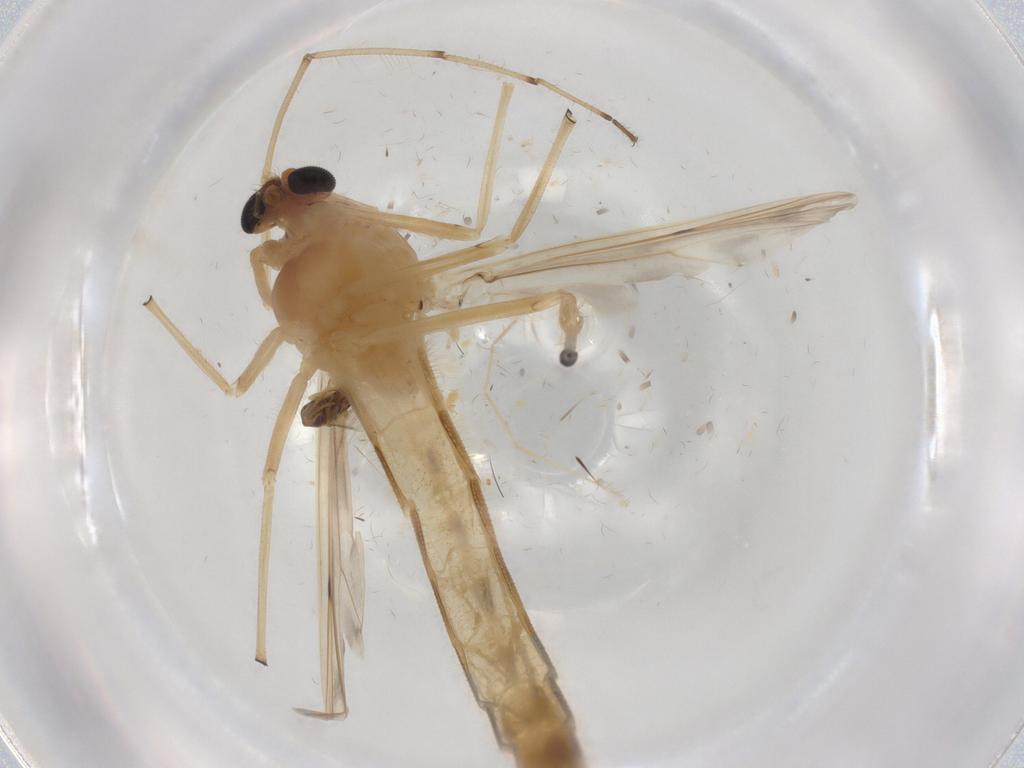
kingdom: Animalia
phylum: Arthropoda
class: Insecta
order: Diptera
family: Chironomidae
